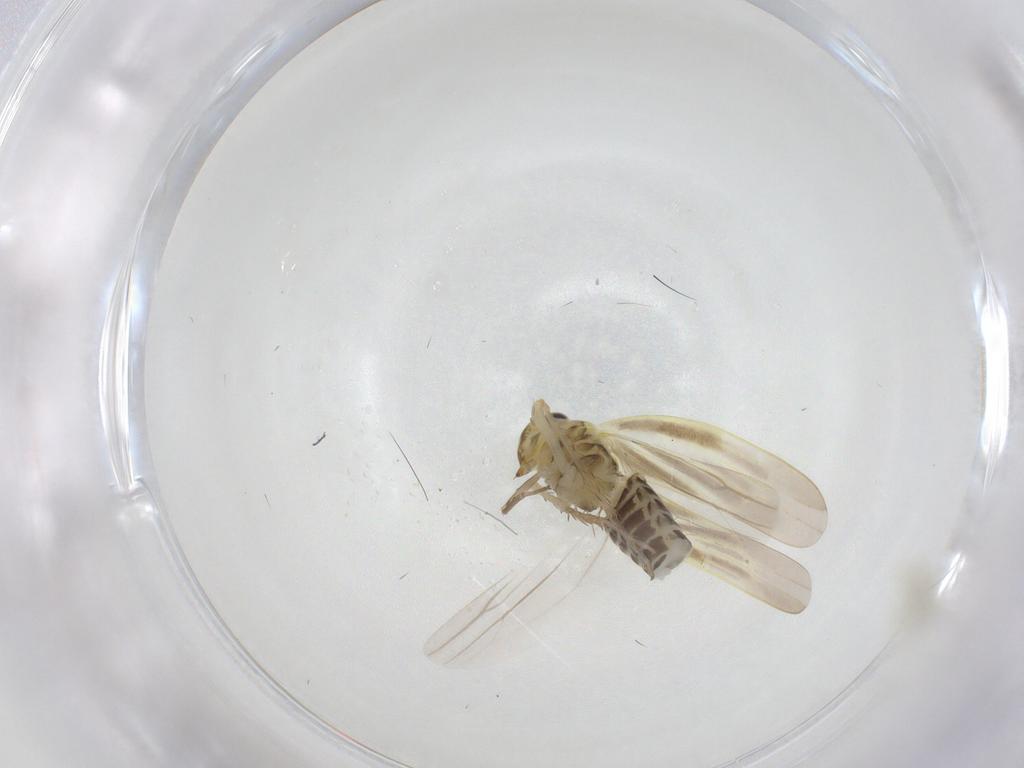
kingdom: Animalia
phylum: Arthropoda
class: Insecta
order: Hemiptera
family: Cicadellidae
